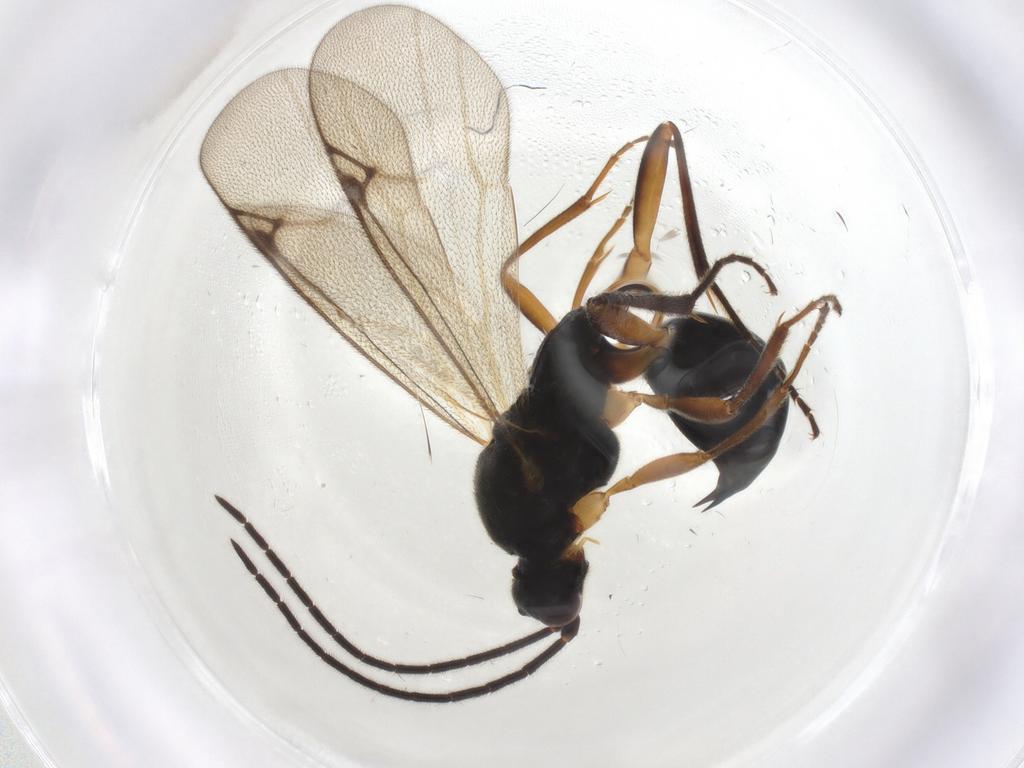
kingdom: Animalia
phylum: Arthropoda
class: Insecta
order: Hymenoptera
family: Proctotrupidae
